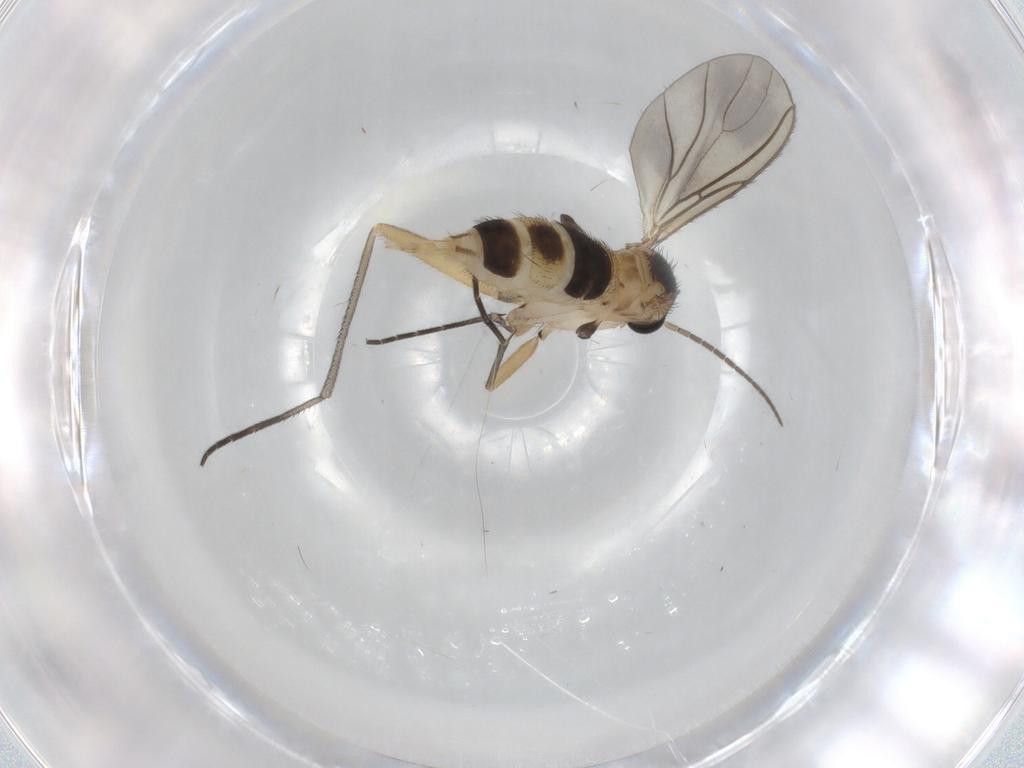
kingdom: Animalia
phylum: Arthropoda
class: Insecta
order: Diptera
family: Sciaridae
